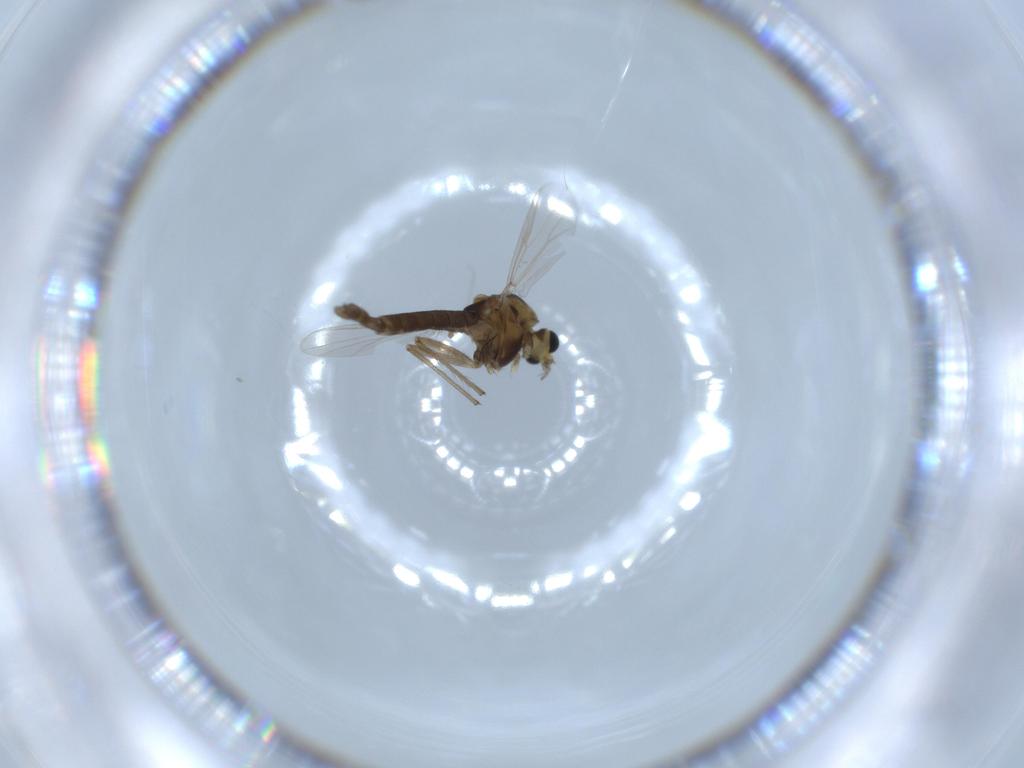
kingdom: Animalia
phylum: Arthropoda
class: Insecta
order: Diptera
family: Chironomidae
